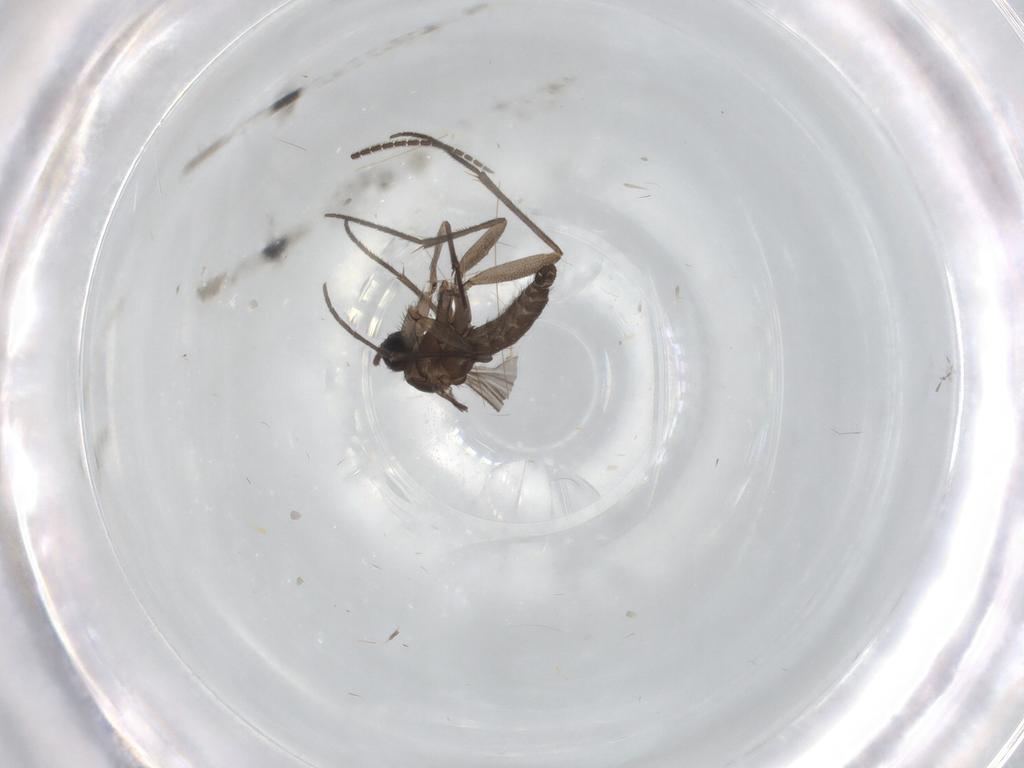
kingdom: Animalia
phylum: Arthropoda
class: Insecta
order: Diptera
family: Sciaridae
